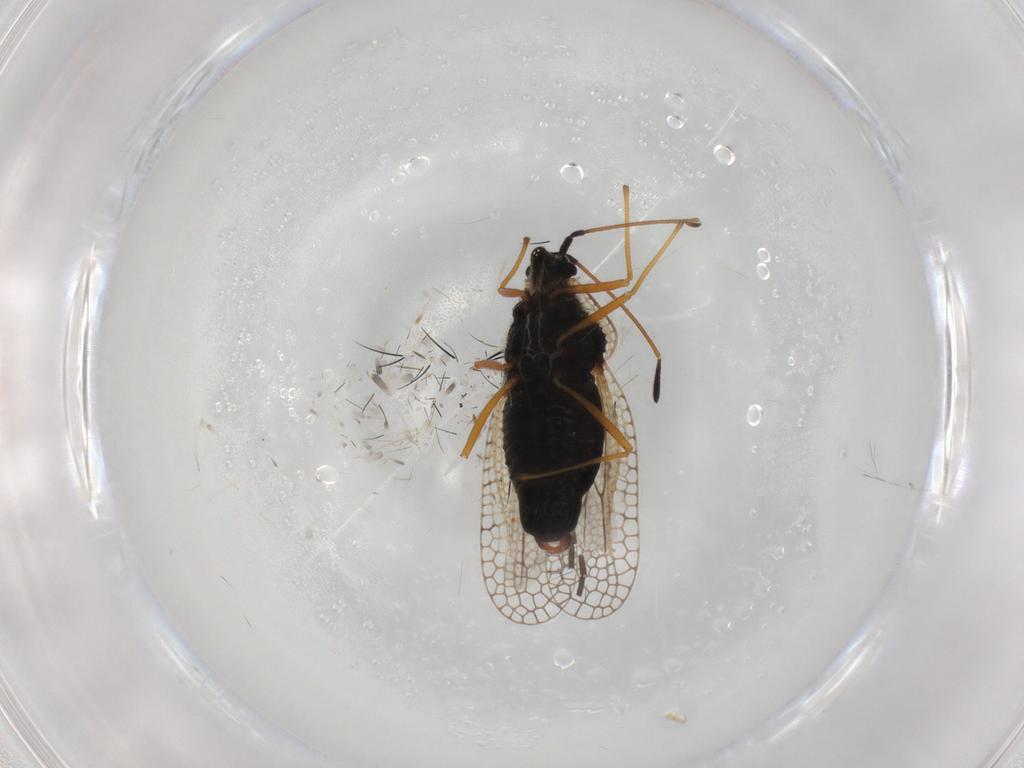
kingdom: Animalia
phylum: Arthropoda
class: Insecta
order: Hemiptera
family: Tingidae
